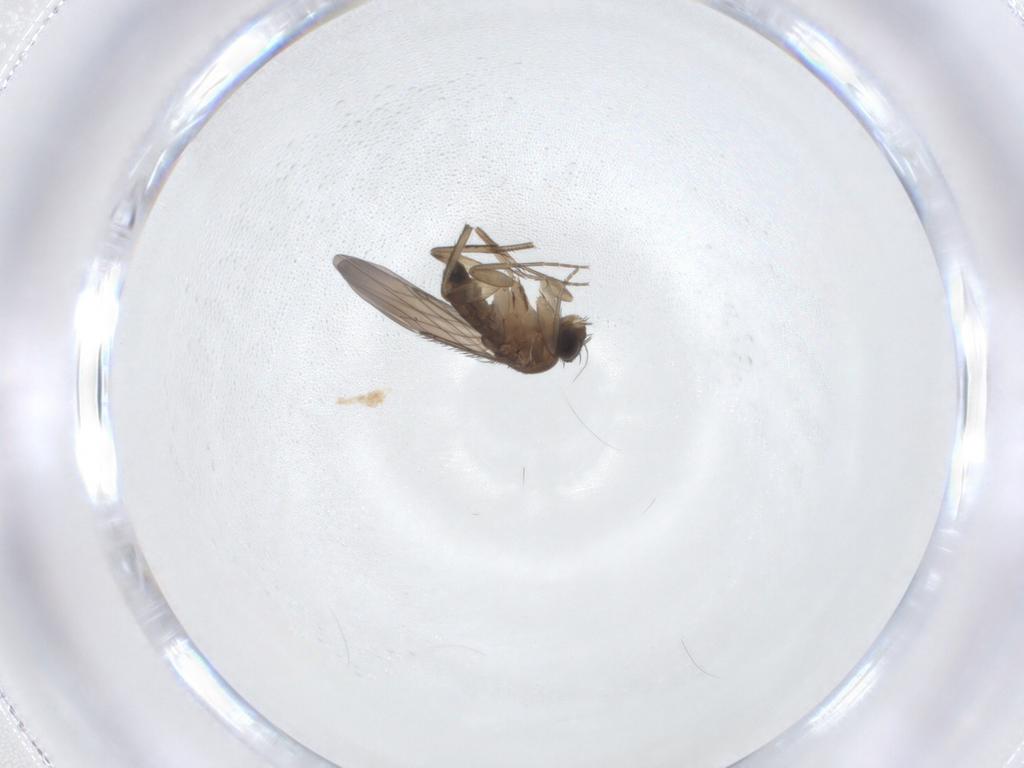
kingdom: Animalia
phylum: Arthropoda
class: Insecta
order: Diptera
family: Phoridae
